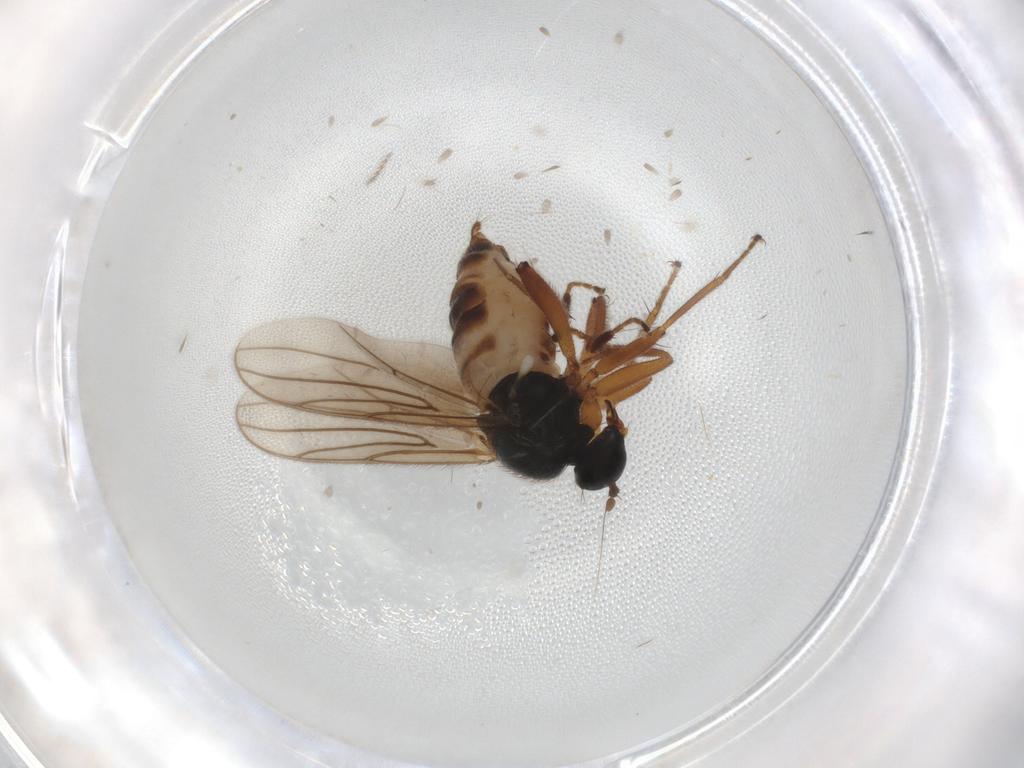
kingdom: Animalia
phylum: Arthropoda
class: Insecta
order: Diptera
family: Hybotidae
